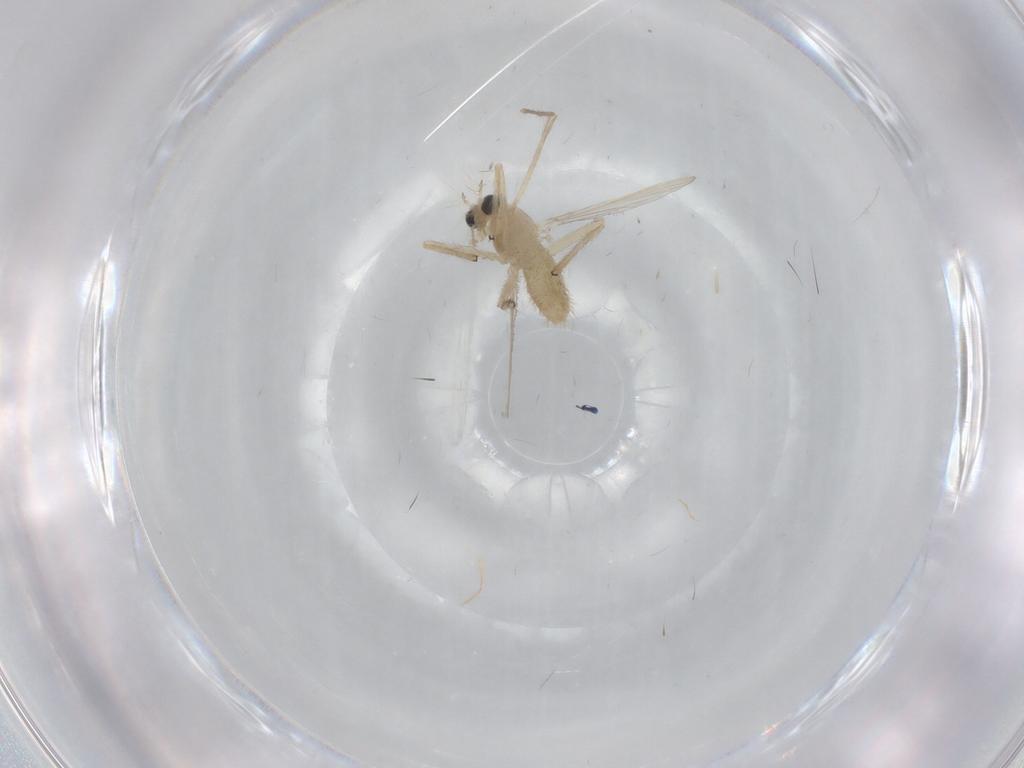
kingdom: Animalia
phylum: Arthropoda
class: Insecta
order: Diptera
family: Chironomidae
